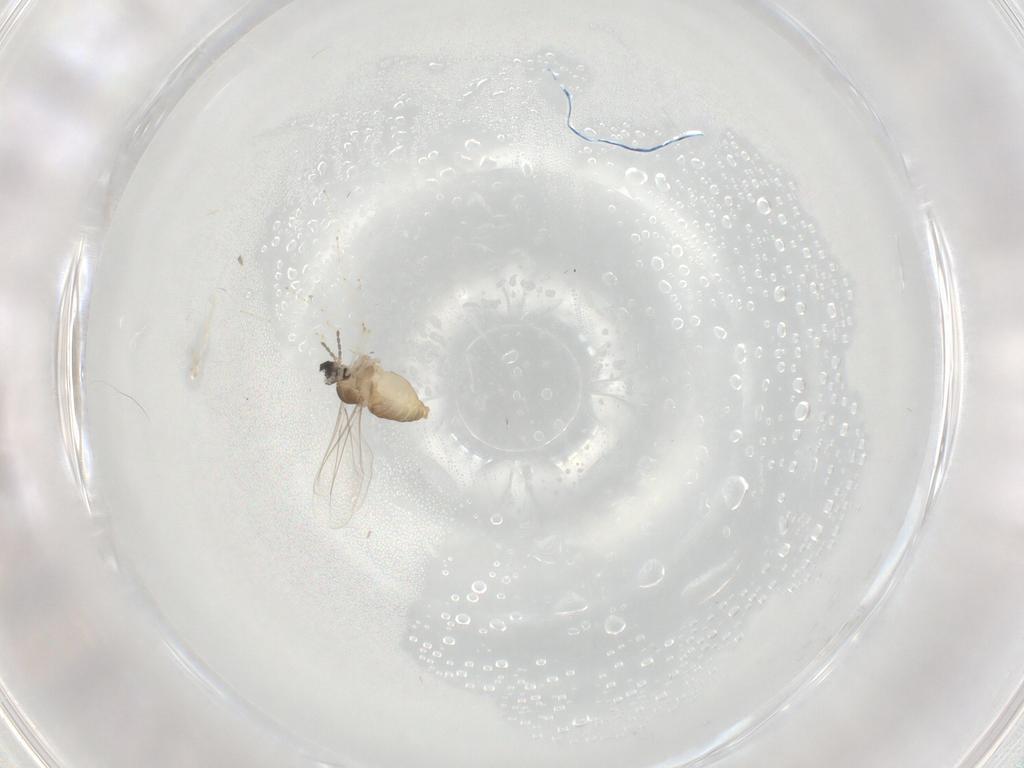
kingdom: Animalia
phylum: Arthropoda
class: Insecta
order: Diptera
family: Cecidomyiidae
